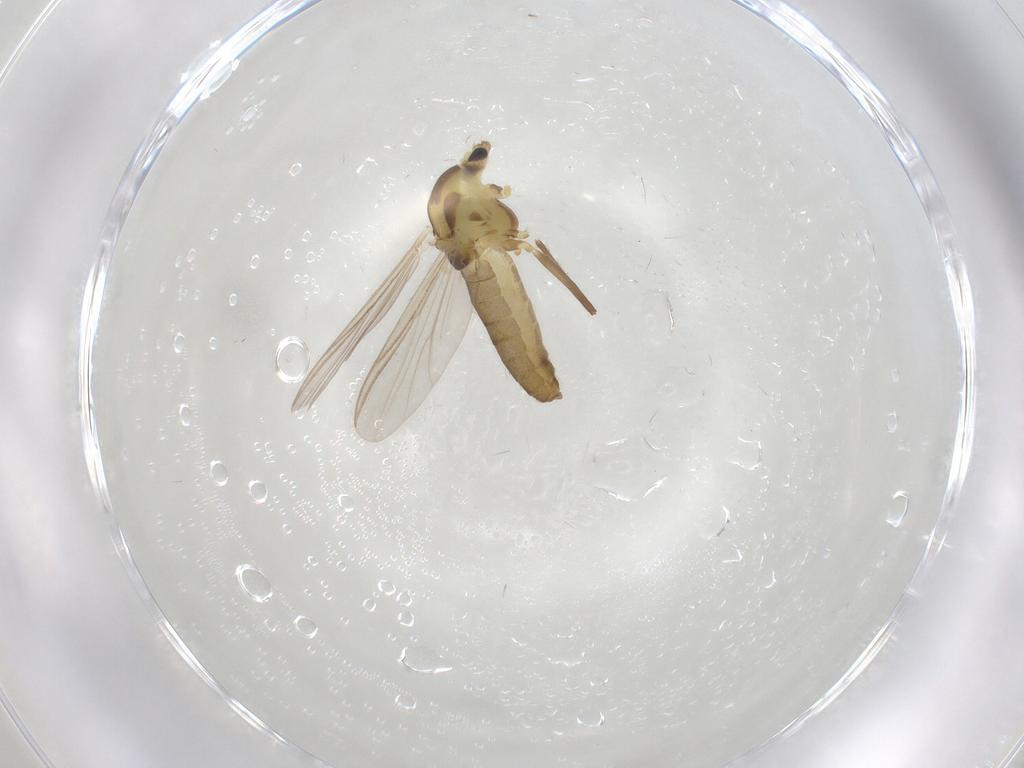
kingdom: Animalia
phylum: Arthropoda
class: Insecta
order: Diptera
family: Chironomidae
